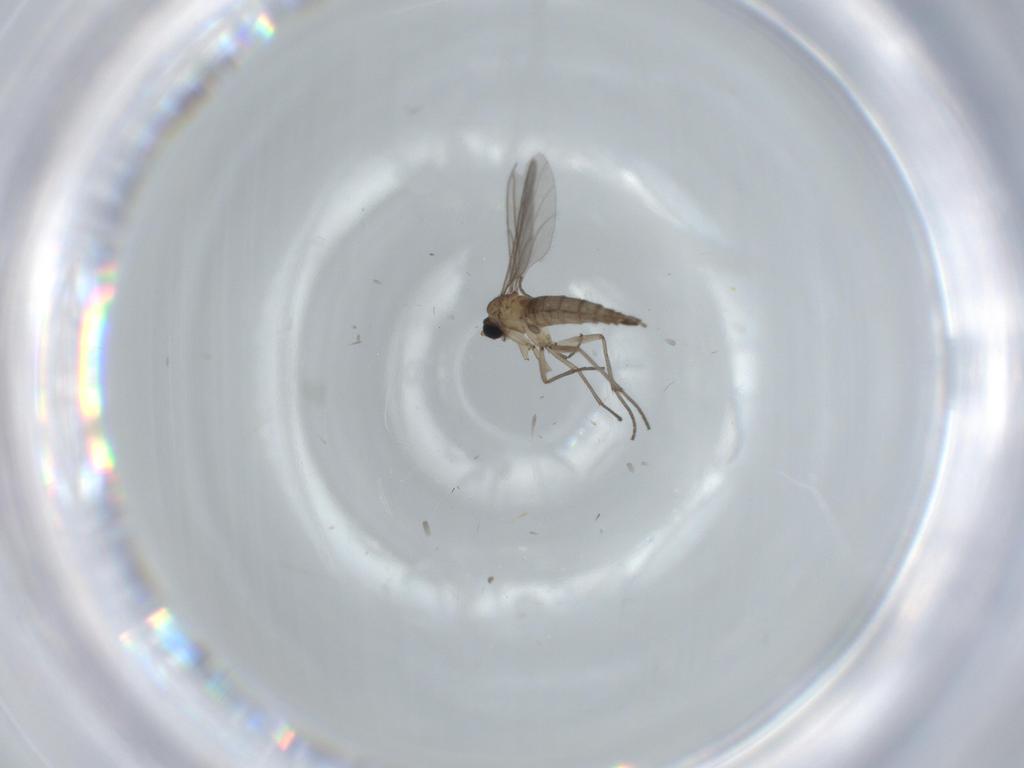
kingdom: Animalia
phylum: Arthropoda
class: Insecta
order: Diptera
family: Sciaridae
